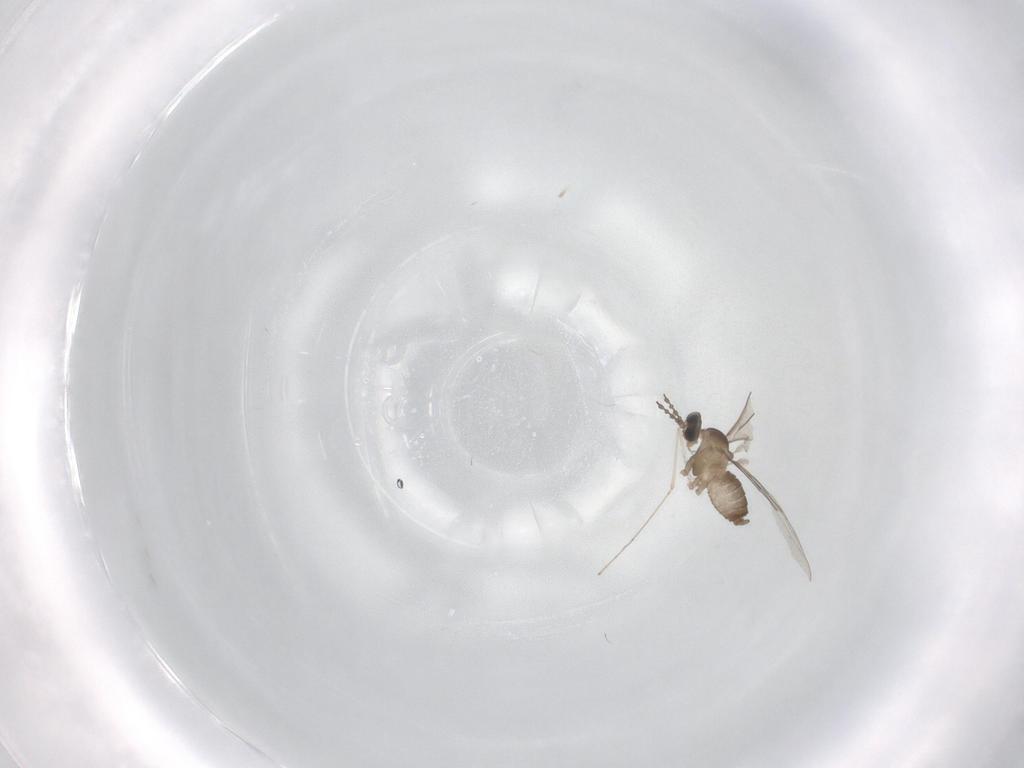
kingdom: Animalia
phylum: Arthropoda
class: Insecta
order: Diptera
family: Cecidomyiidae
